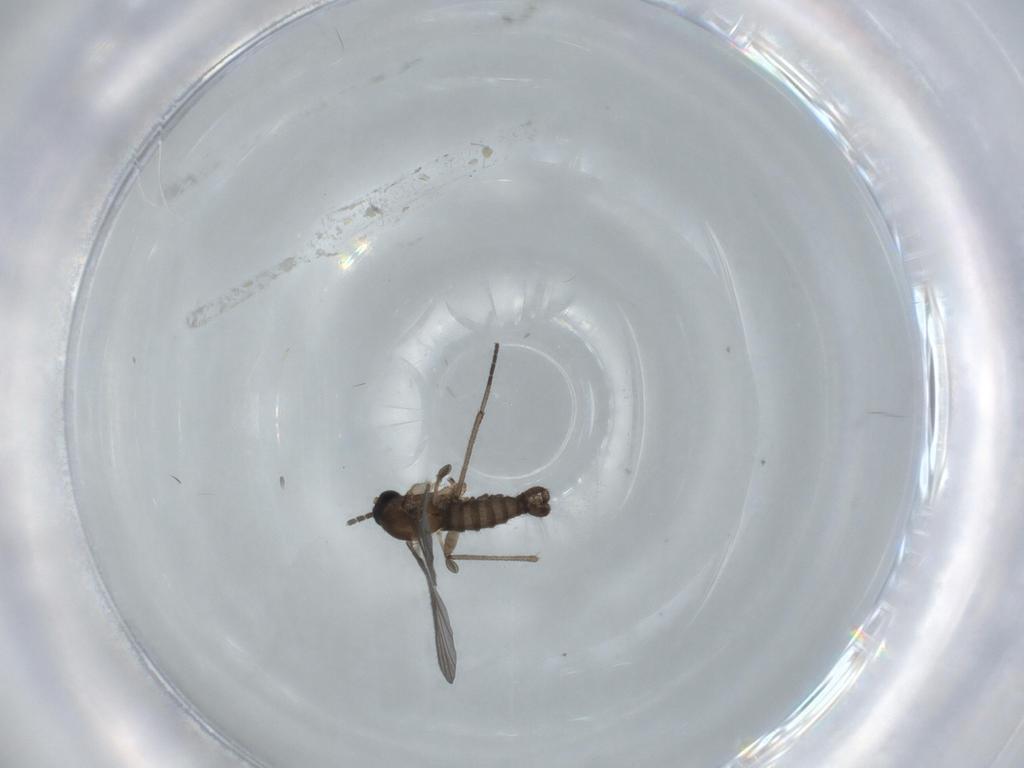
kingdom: Animalia
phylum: Arthropoda
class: Insecta
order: Diptera
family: Sciaridae
